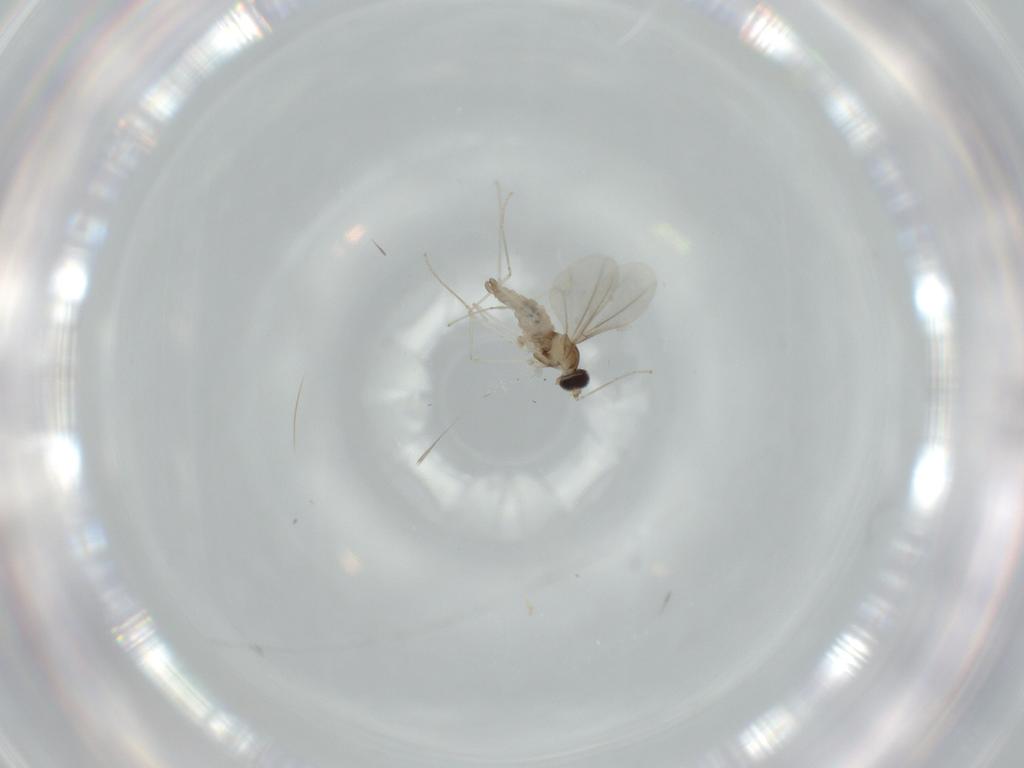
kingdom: Animalia
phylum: Arthropoda
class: Insecta
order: Diptera
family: Cecidomyiidae
